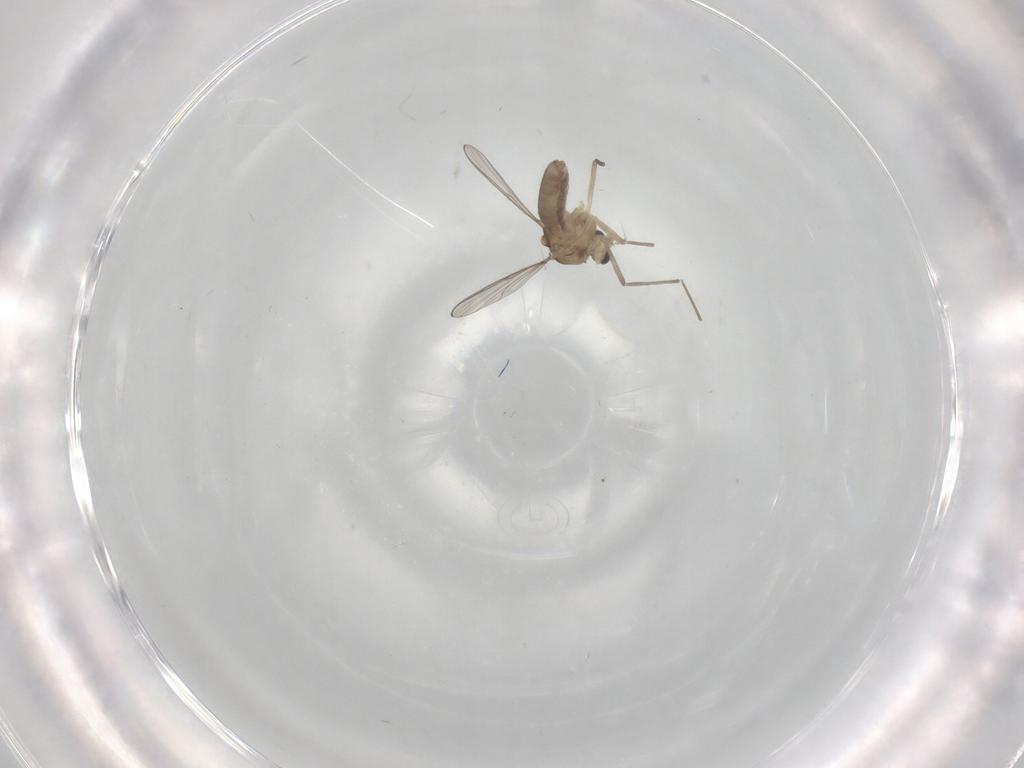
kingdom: Animalia
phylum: Arthropoda
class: Insecta
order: Diptera
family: Chironomidae
